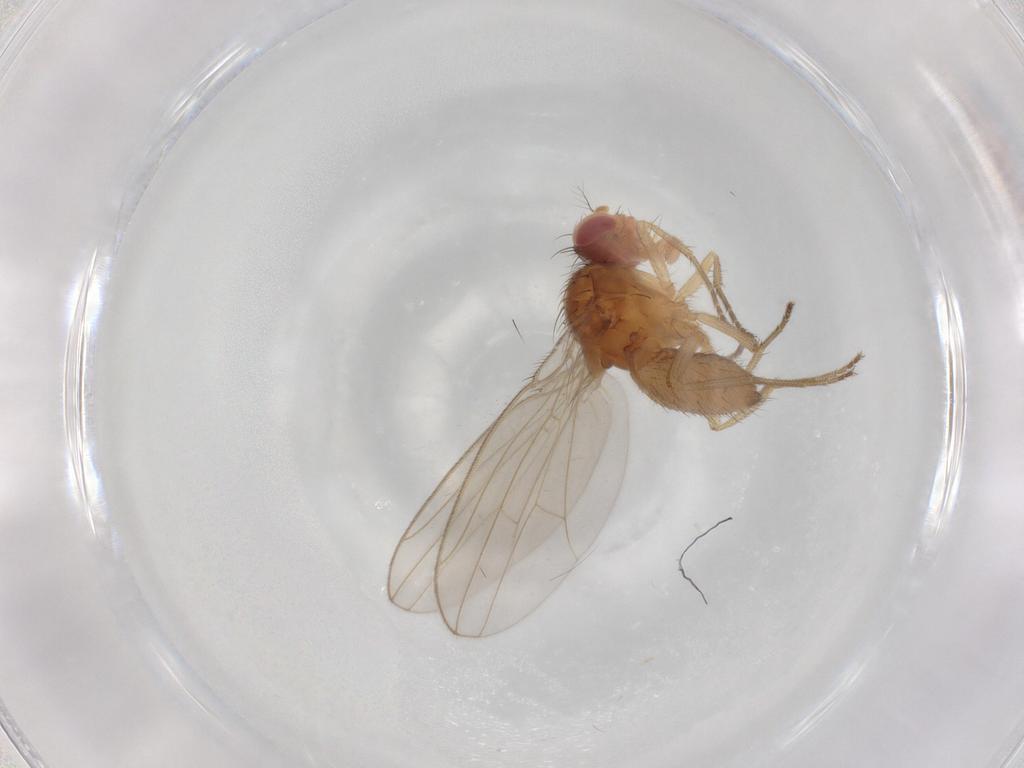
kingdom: Animalia
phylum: Arthropoda
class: Insecta
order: Diptera
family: Drosophilidae
